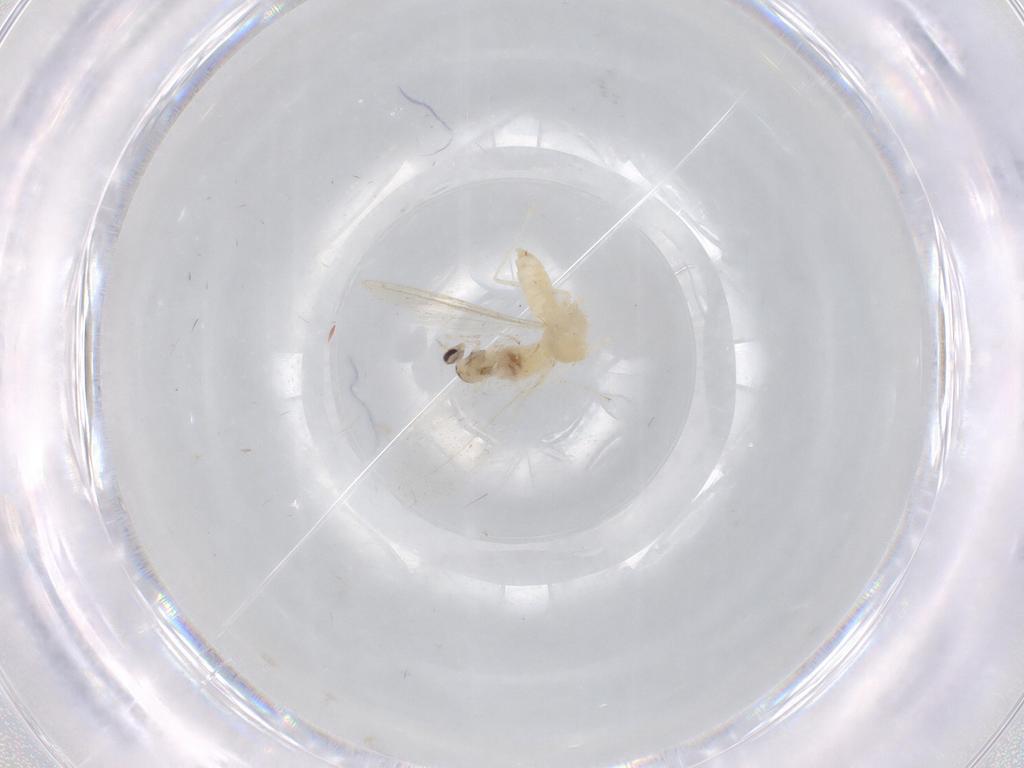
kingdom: Animalia
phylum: Arthropoda
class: Insecta
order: Diptera
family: Cecidomyiidae
